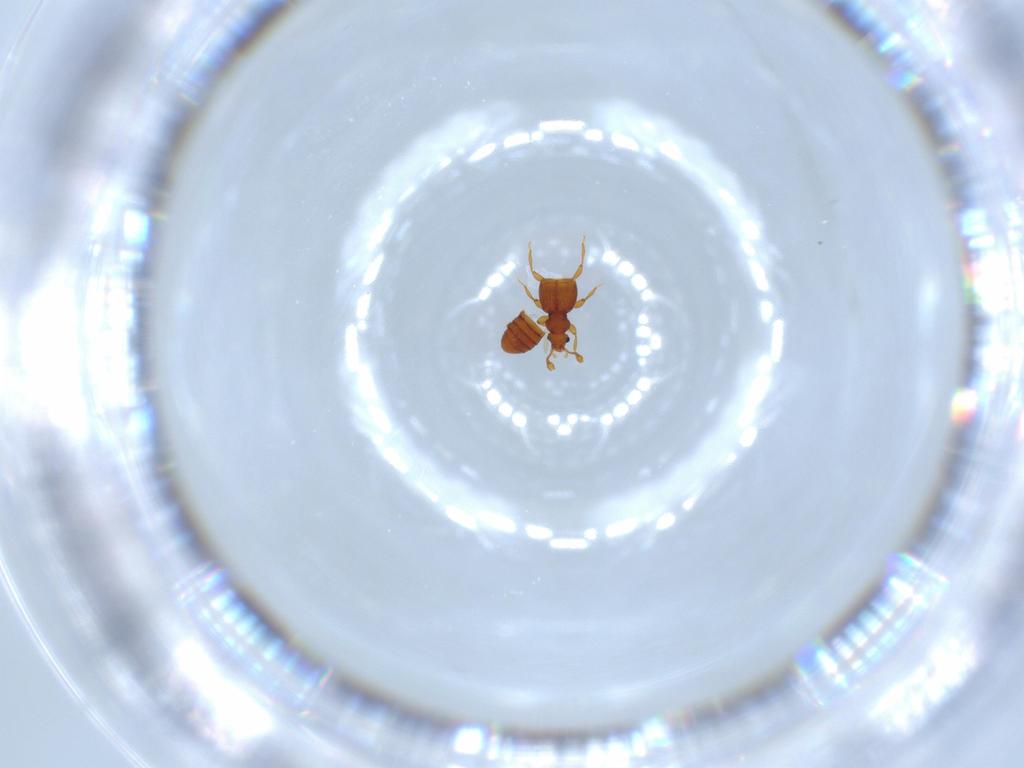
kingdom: Animalia
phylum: Arthropoda
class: Insecta
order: Coleoptera
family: Staphylinidae
